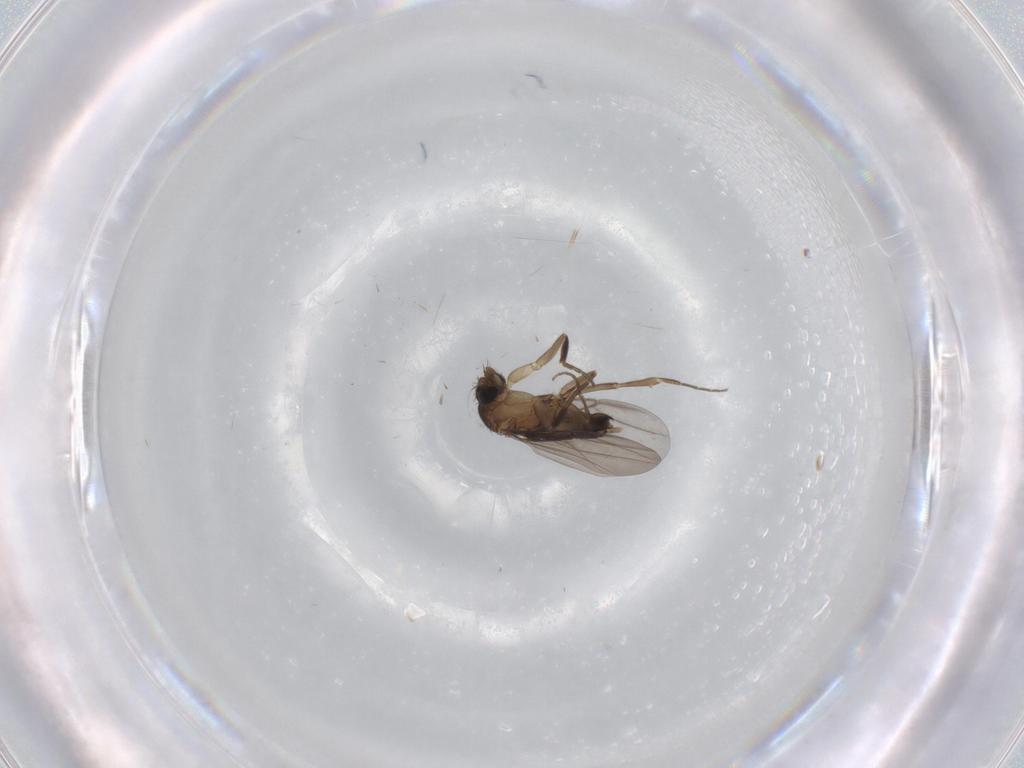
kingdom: Animalia
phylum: Arthropoda
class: Insecta
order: Diptera
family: Phoridae
